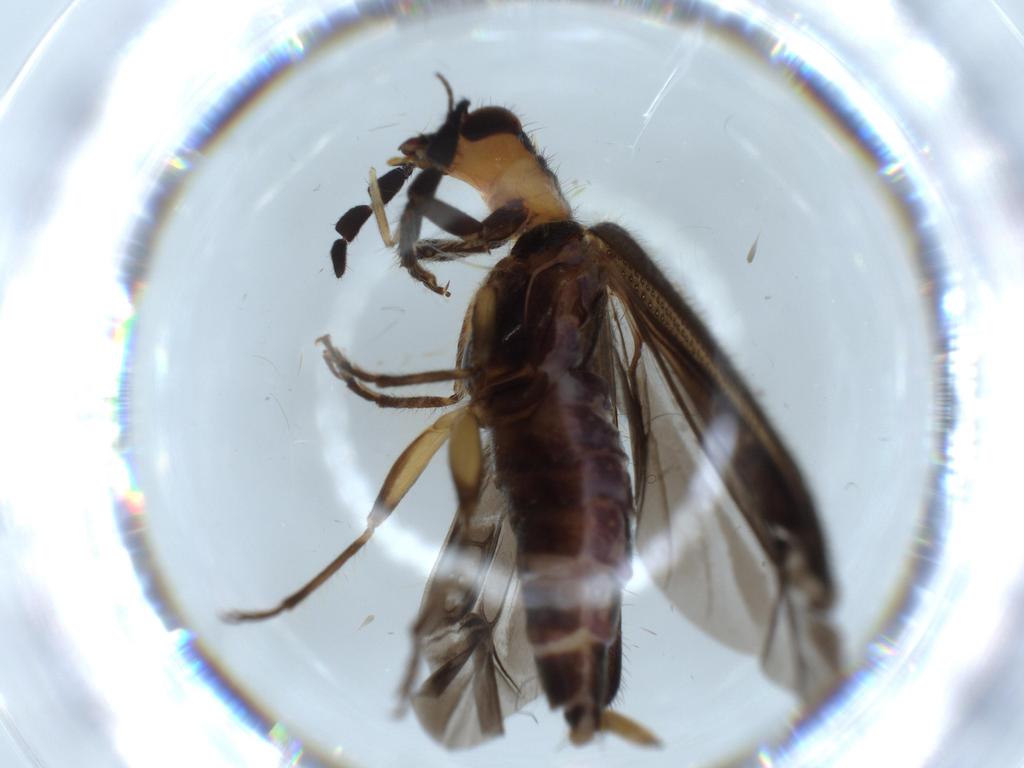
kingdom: Animalia
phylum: Arthropoda
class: Insecta
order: Coleoptera
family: Cleridae
